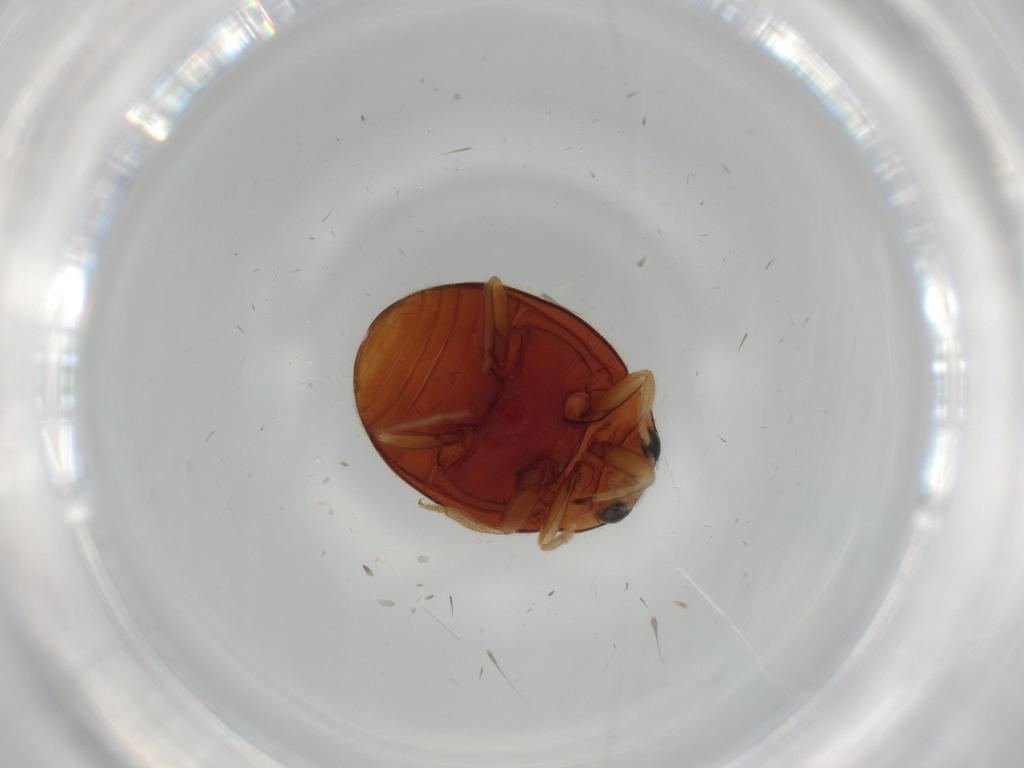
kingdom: Animalia
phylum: Arthropoda
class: Insecta
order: Coleoptera
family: Coccinellidae
